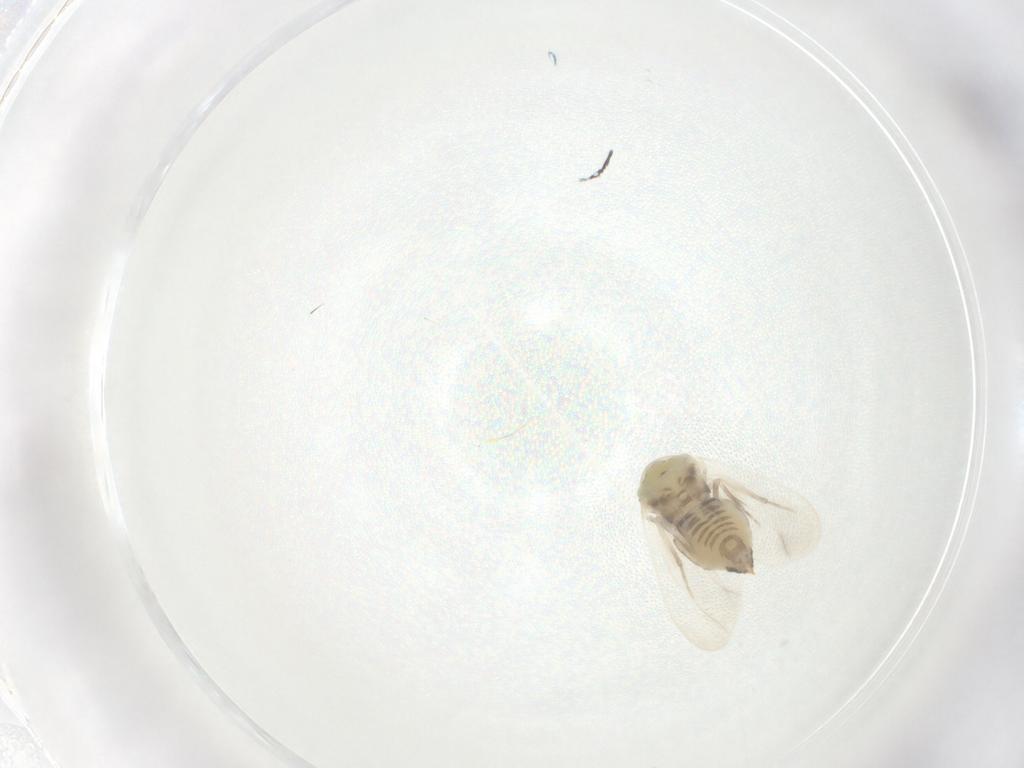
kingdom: Animalia
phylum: Arthropoda
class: Insecta
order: Hemiptera
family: Aleyrodidae
